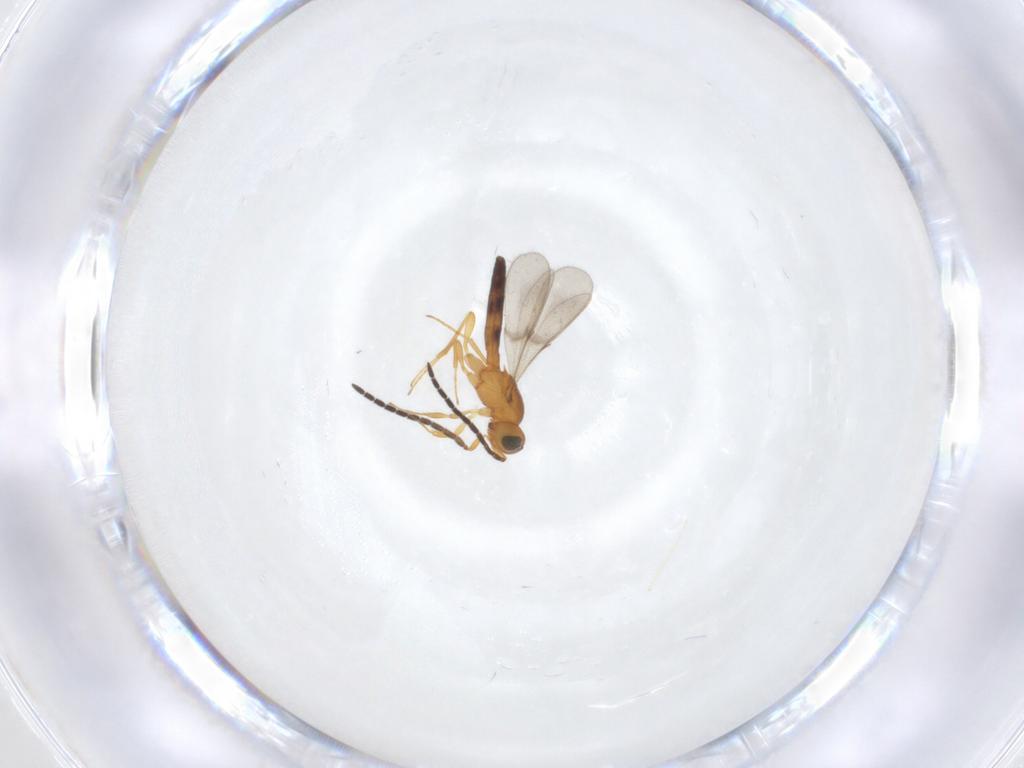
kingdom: Animalia
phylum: Arthropoda
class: Insecta
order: Hymenoptera
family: Scelionidae
